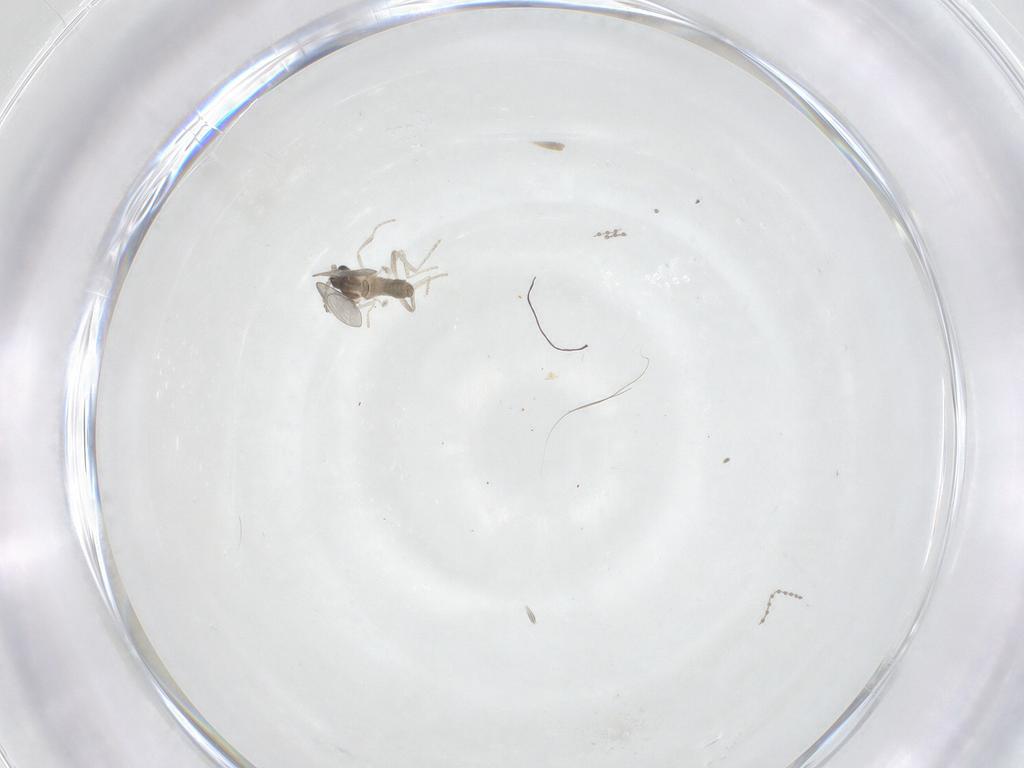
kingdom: Animalia
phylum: Arthropoda
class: Insecta
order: Diptera
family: Cecidomyiidae
